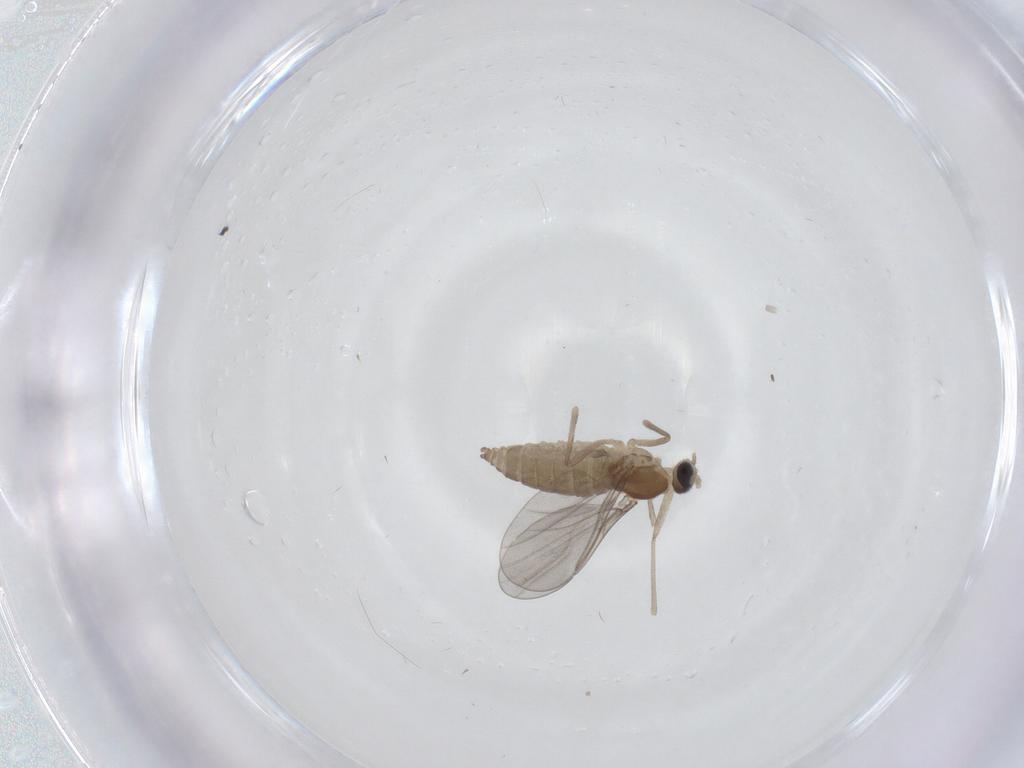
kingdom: Animalia
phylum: Arthropoda
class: Insecta
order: Diptera
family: Cecidomyiidae
